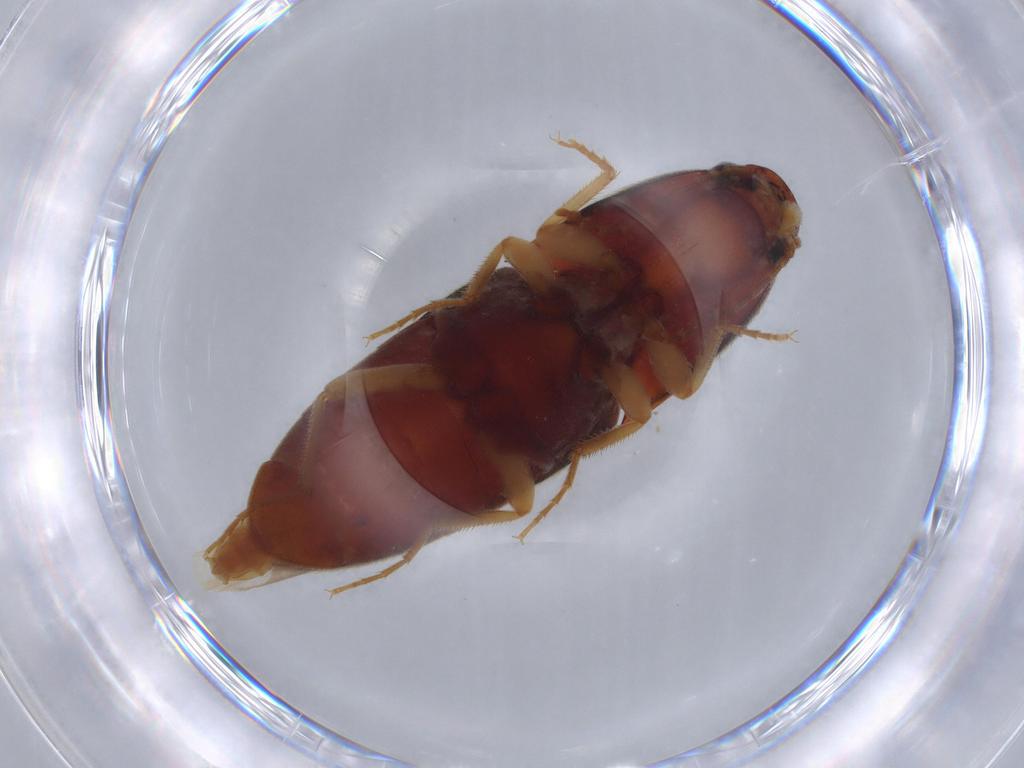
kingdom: Animalia
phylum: Arthropoda
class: Insecta
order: Coleoptera
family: Elateridae
